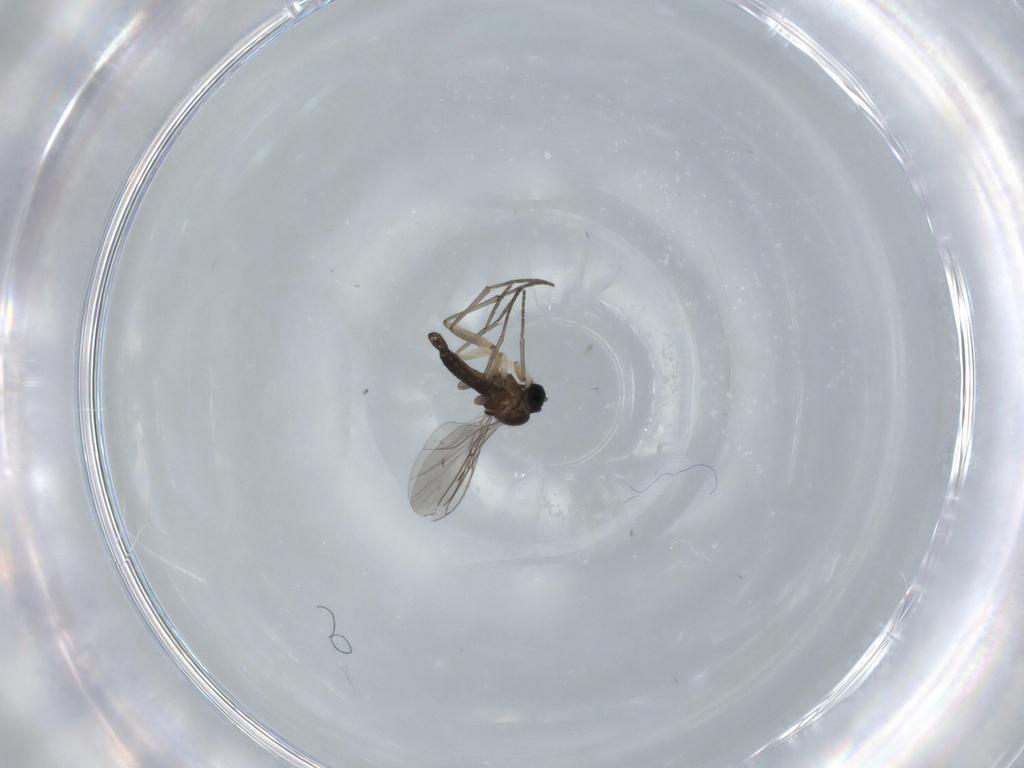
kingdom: Animalia
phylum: Arthropoda
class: Insecta
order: Diptera
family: Sciaridae
